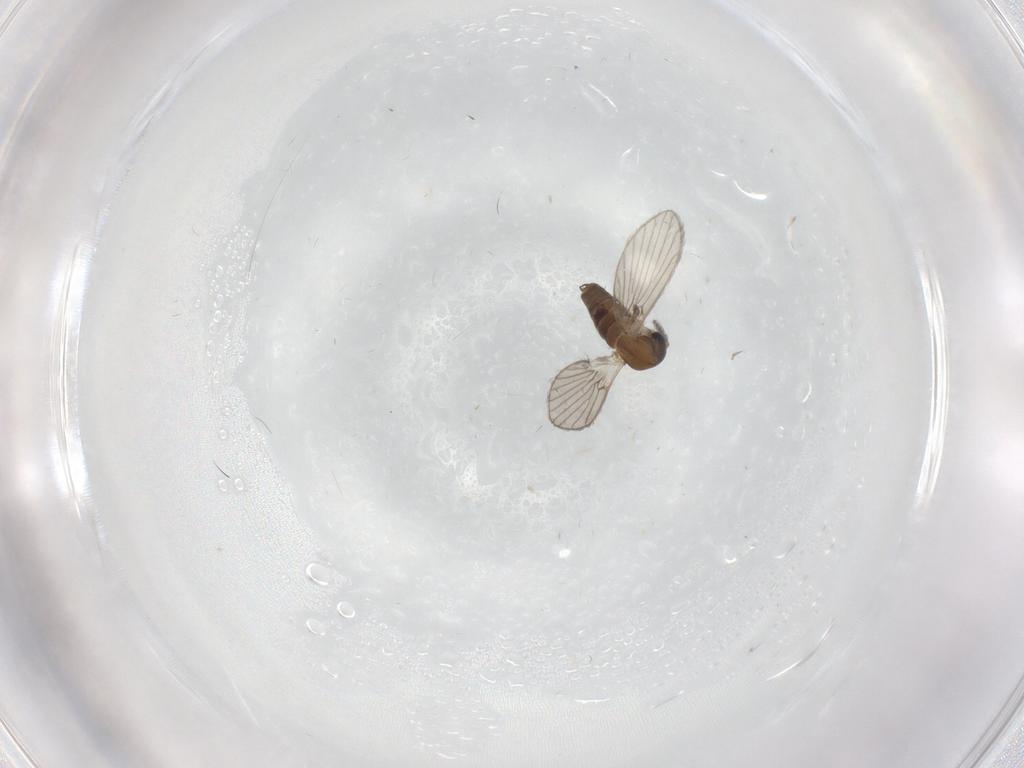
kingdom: Animalia
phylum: Arthropoda
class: Insecta
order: Diptera
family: Phoridae
